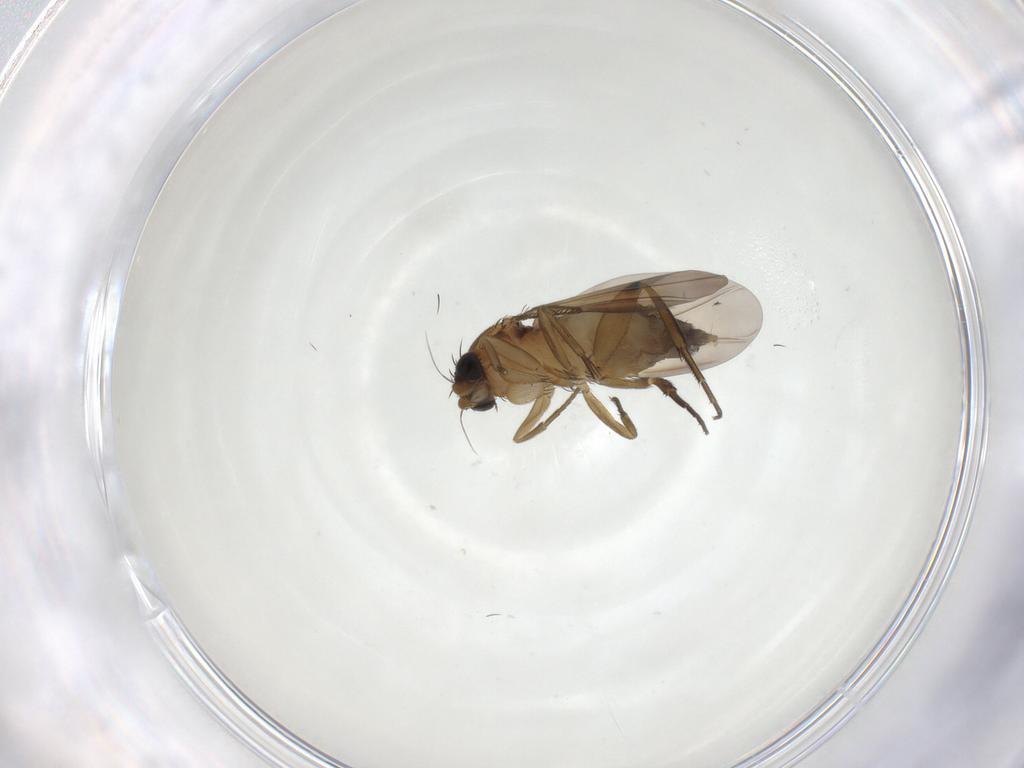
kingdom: Animalia
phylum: Arthropoda
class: Insecta
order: Diptera
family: Phoridae
